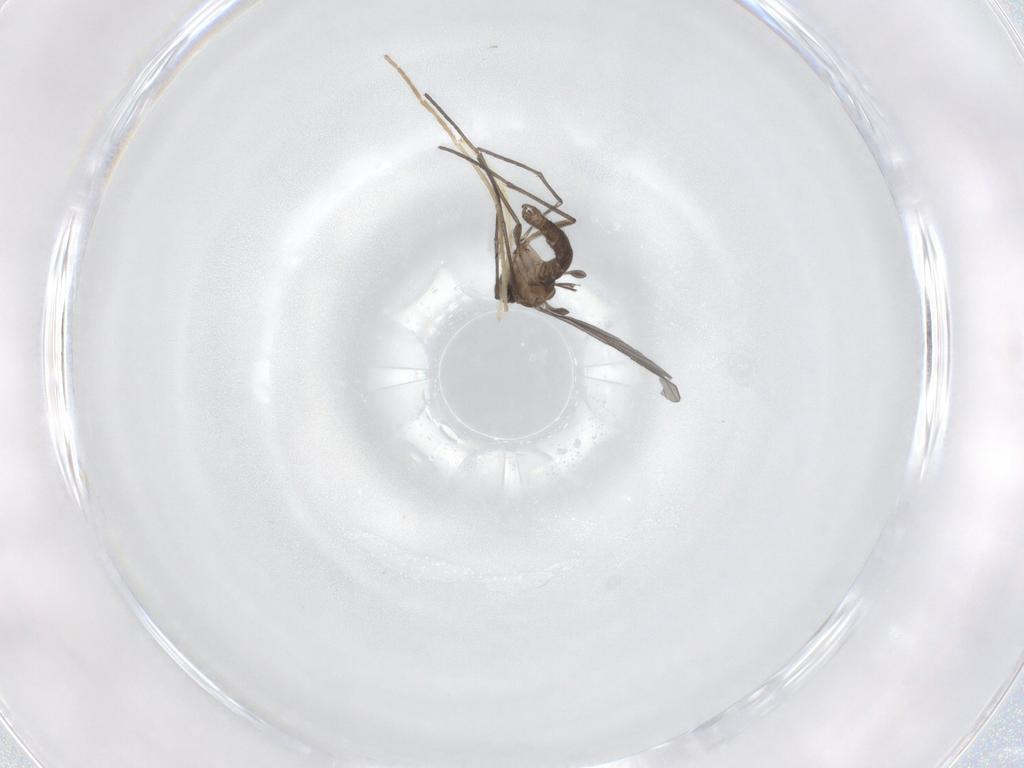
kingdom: Animalia
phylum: Arthropoda
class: Insecta
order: Diptera
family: Sciaridae
